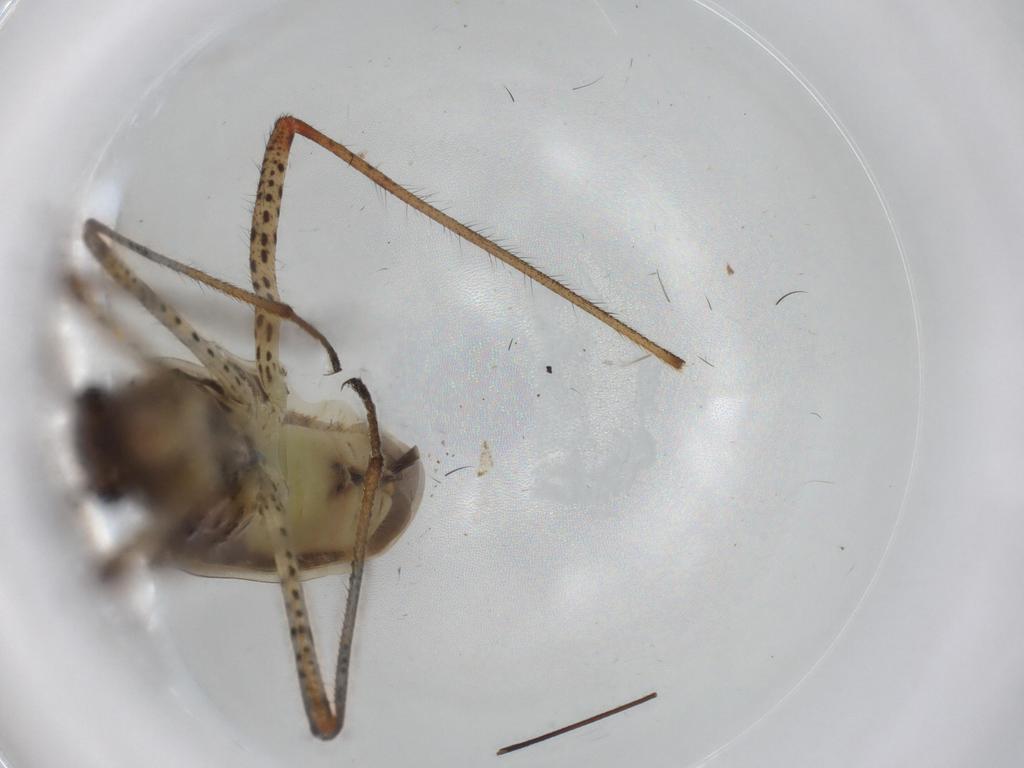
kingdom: Animalia
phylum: Arthropoda
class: Insecta
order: Hemiptera
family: Miridae
